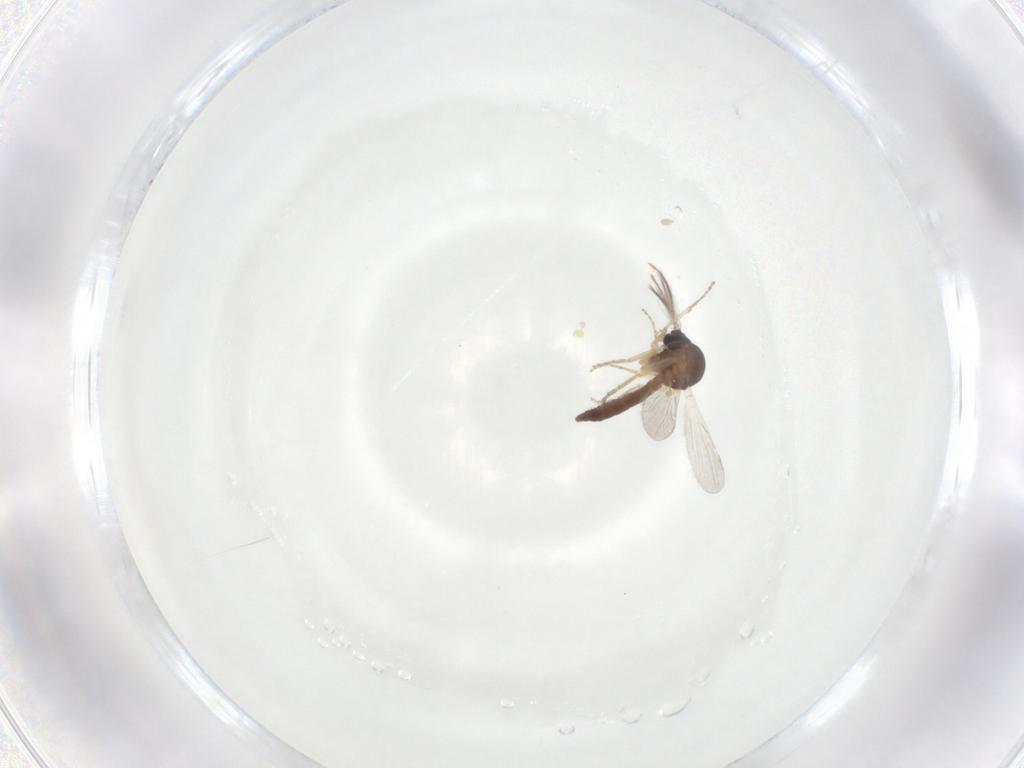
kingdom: Animalia
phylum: Arthropoda
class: Insecta
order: Diptera
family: Ceratopogonidae
